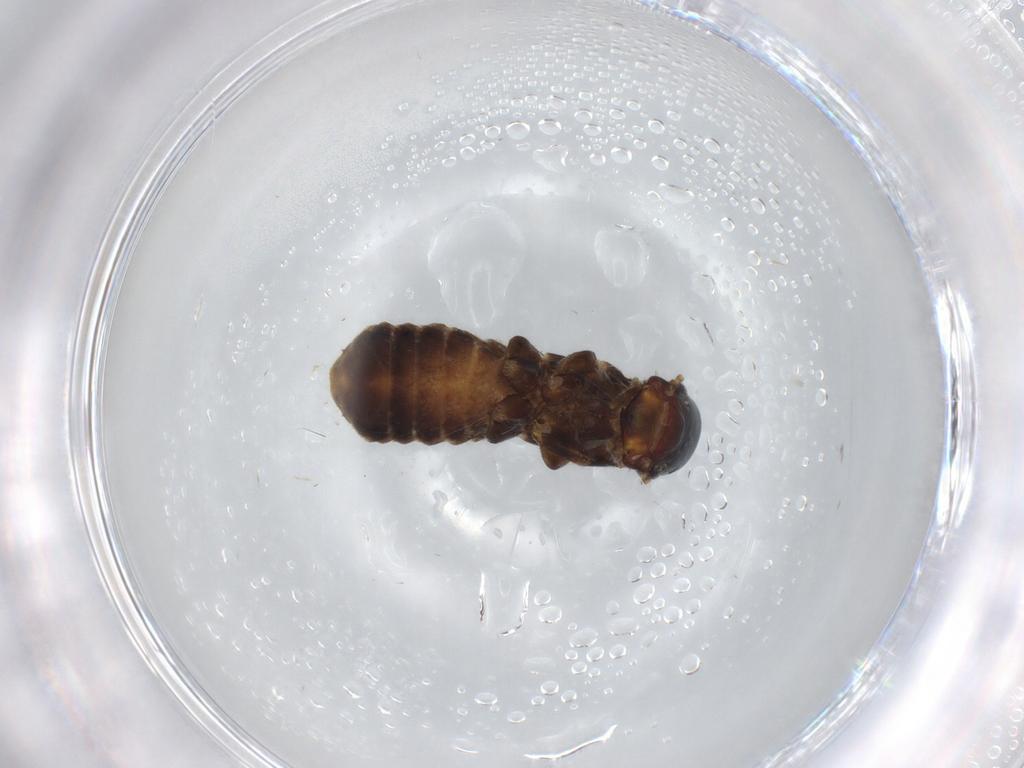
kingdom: Animalia
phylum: Arthropoda
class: Insecta
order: Blattodea
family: Termitidae
